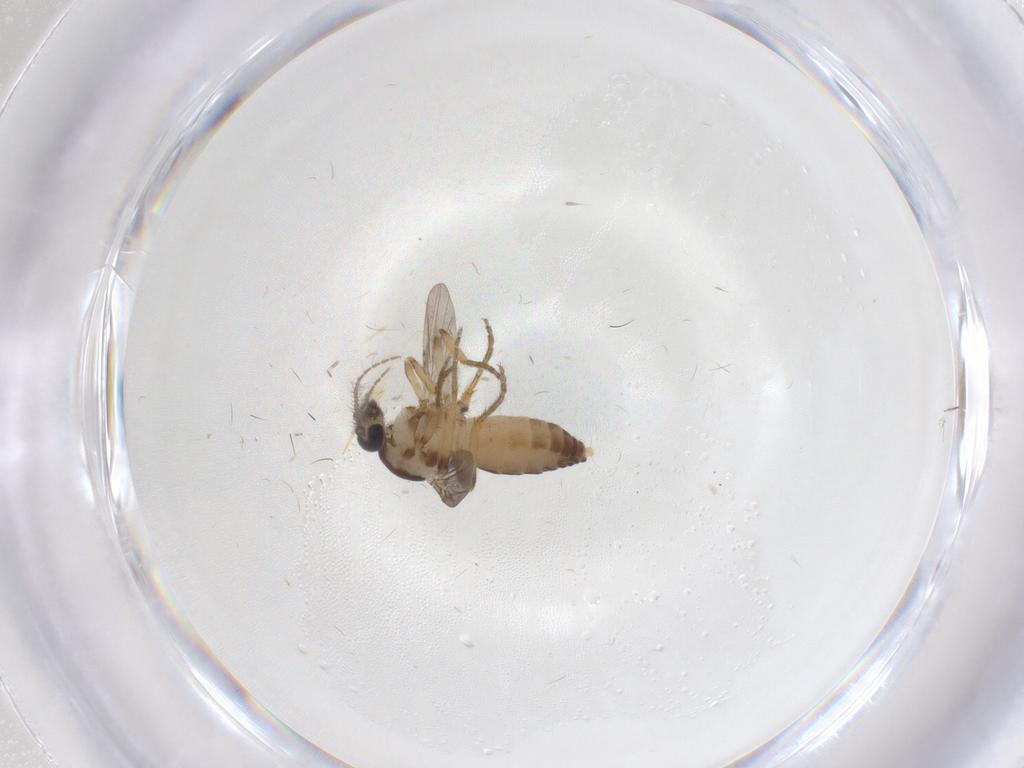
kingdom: Animalia
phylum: Arthropoda
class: Insecta
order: Diptera
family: Ceratopogonidae
